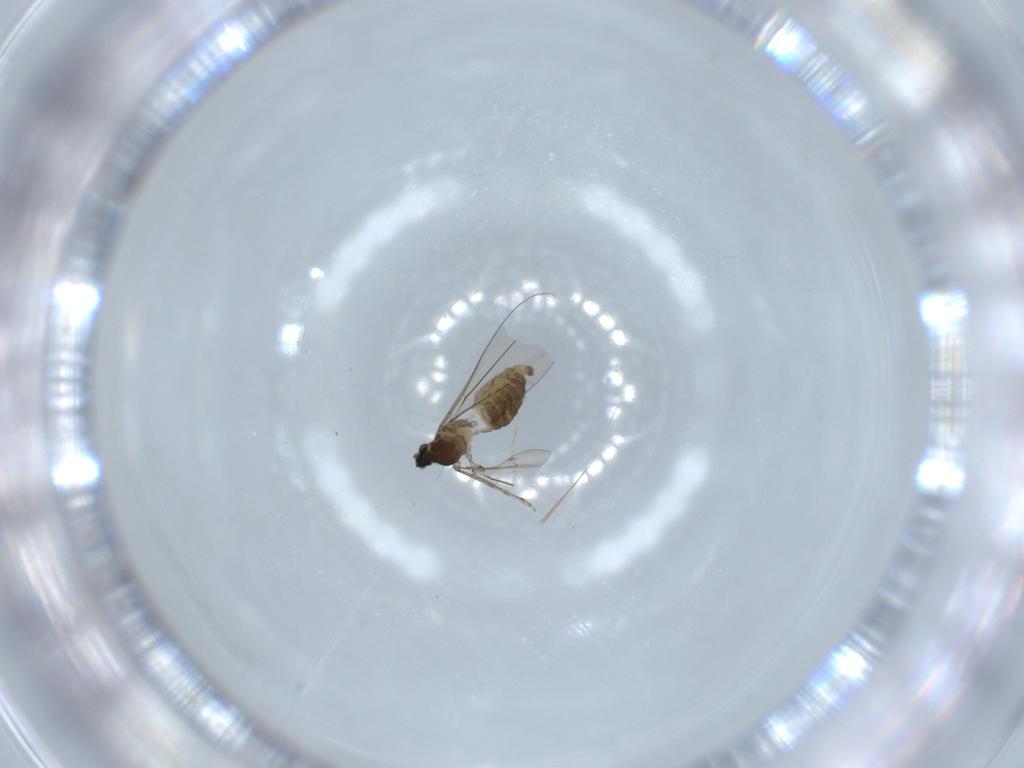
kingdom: Animalia
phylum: Arthropoda
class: Insecta
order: Diptera
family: Cecidomyiidae
